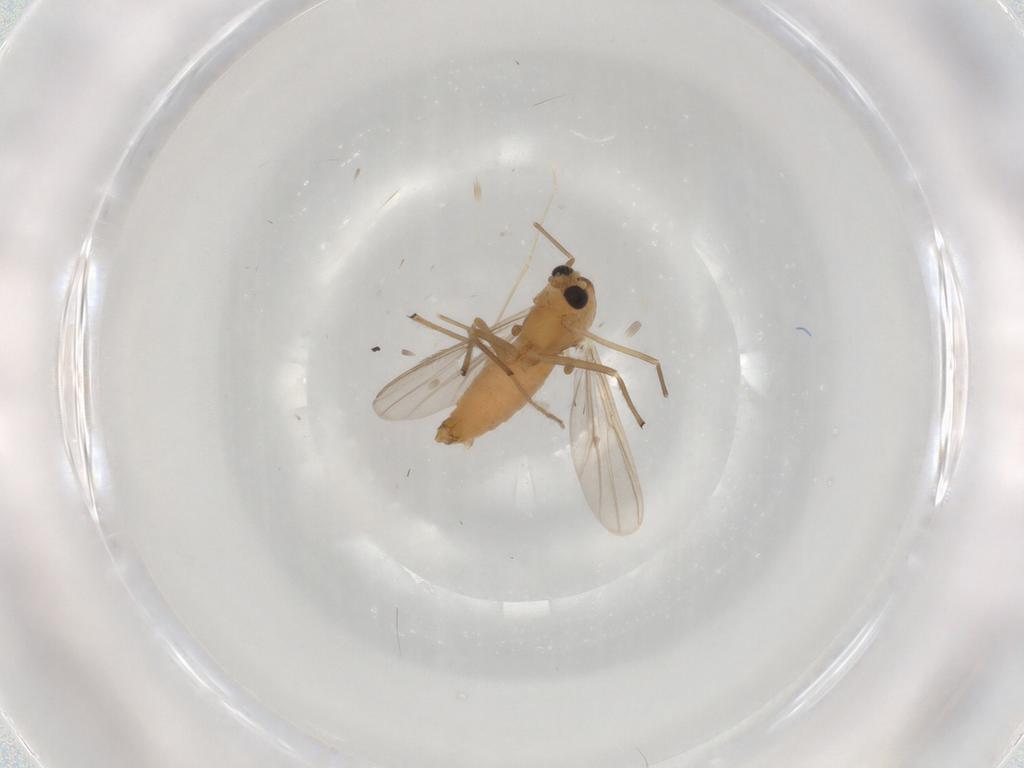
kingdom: Animalia
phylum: Arthropoda
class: Insecta
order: Diptera
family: Chironomidae
